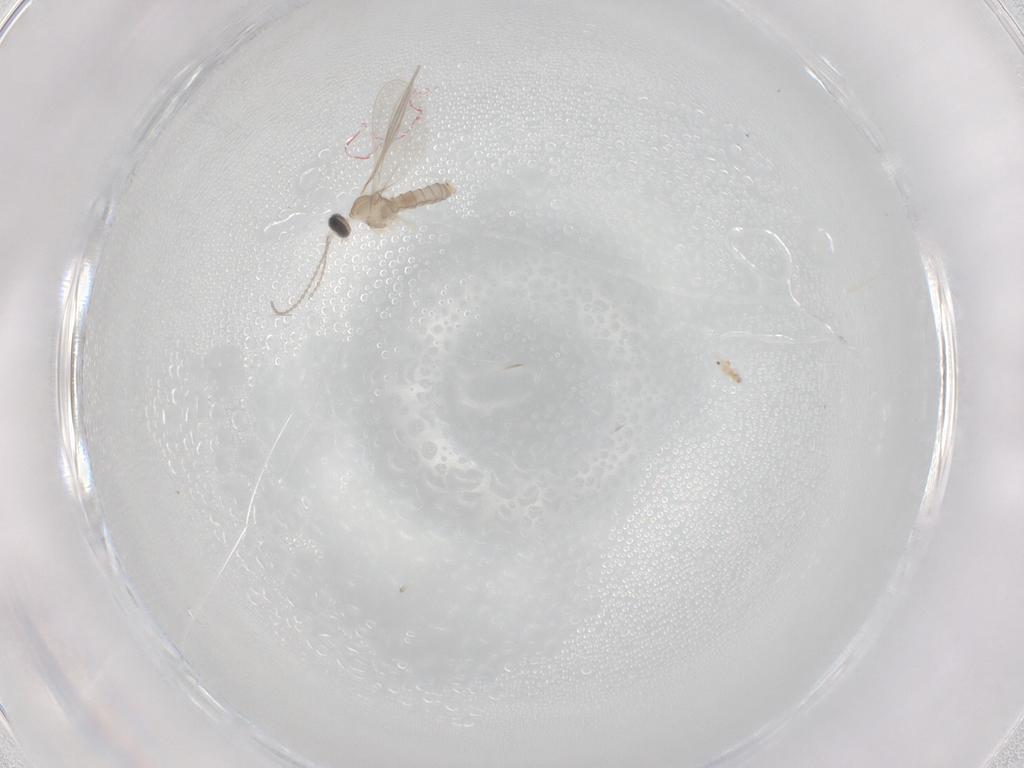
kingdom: Animalia
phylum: Arthropoda
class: Insecta
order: Diptera
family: Cecidomyiidae
